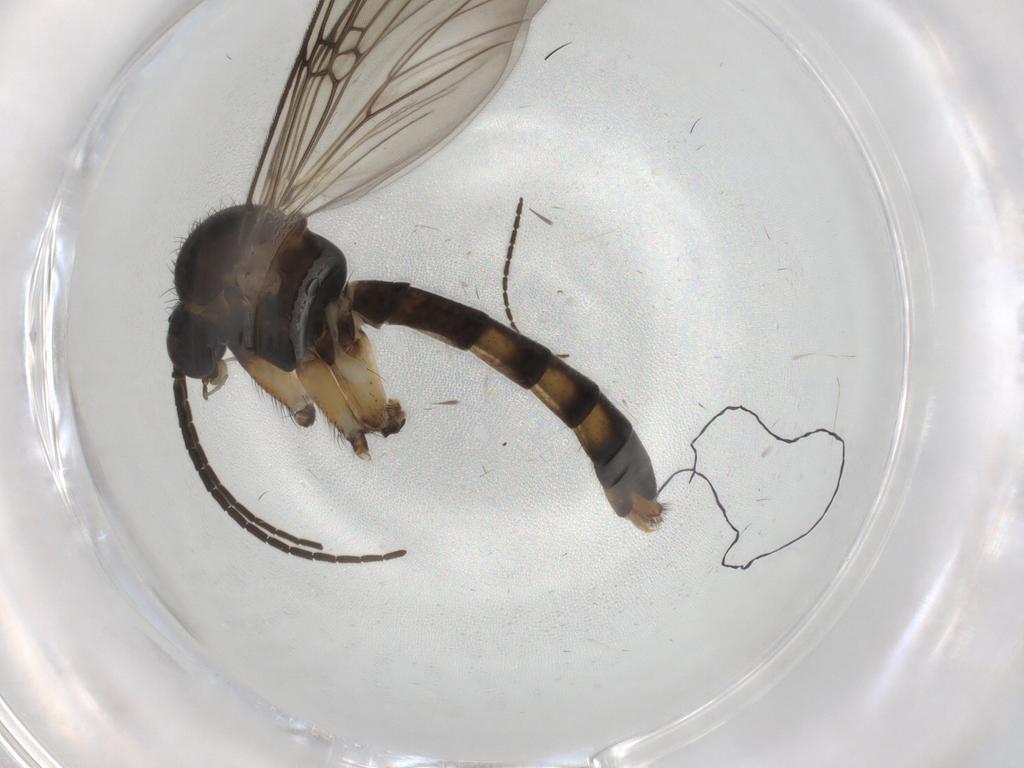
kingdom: Animalia
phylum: Arthropoda
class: Insecta
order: Diptera
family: Mycetophilidae
